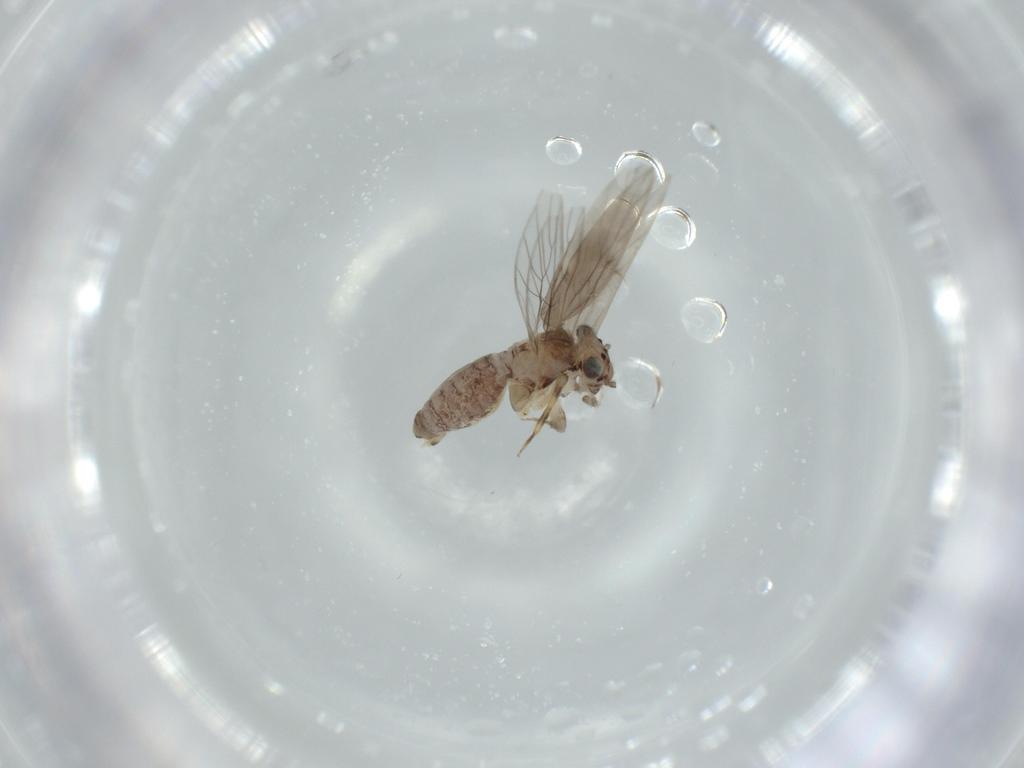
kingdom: Animalia
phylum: Arthropoda
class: Insecta
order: Psocodea
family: Lepidopsocidae
